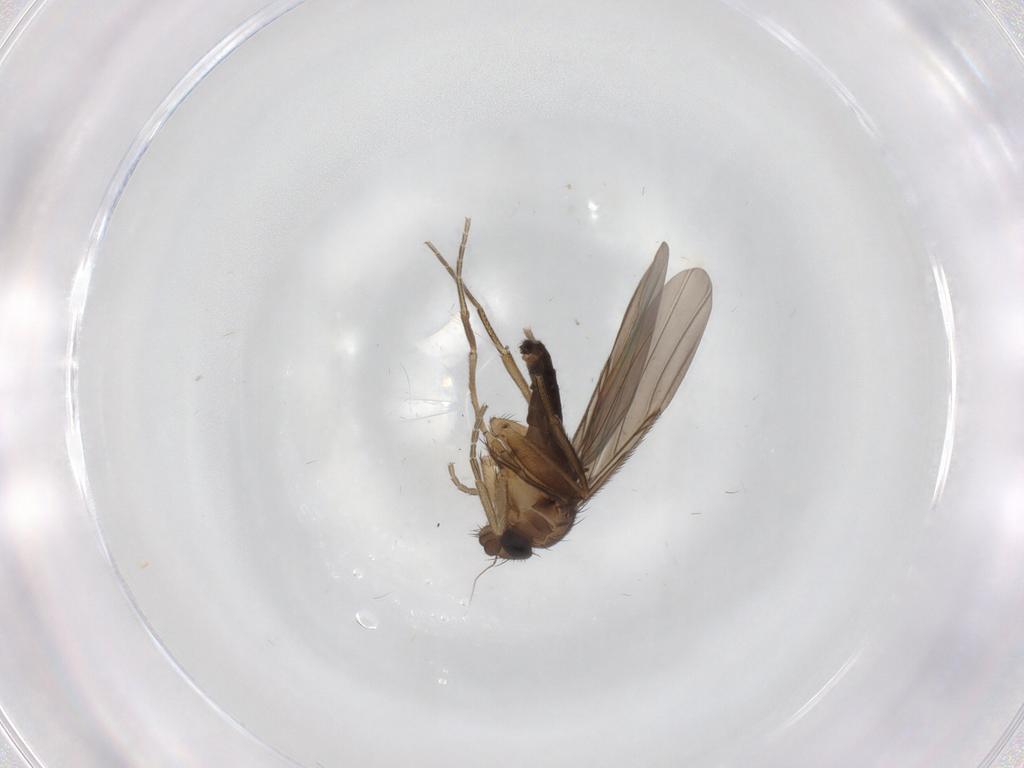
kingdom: Animalia
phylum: Arthropoda
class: Insecta
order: Diptera
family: Phoridae
